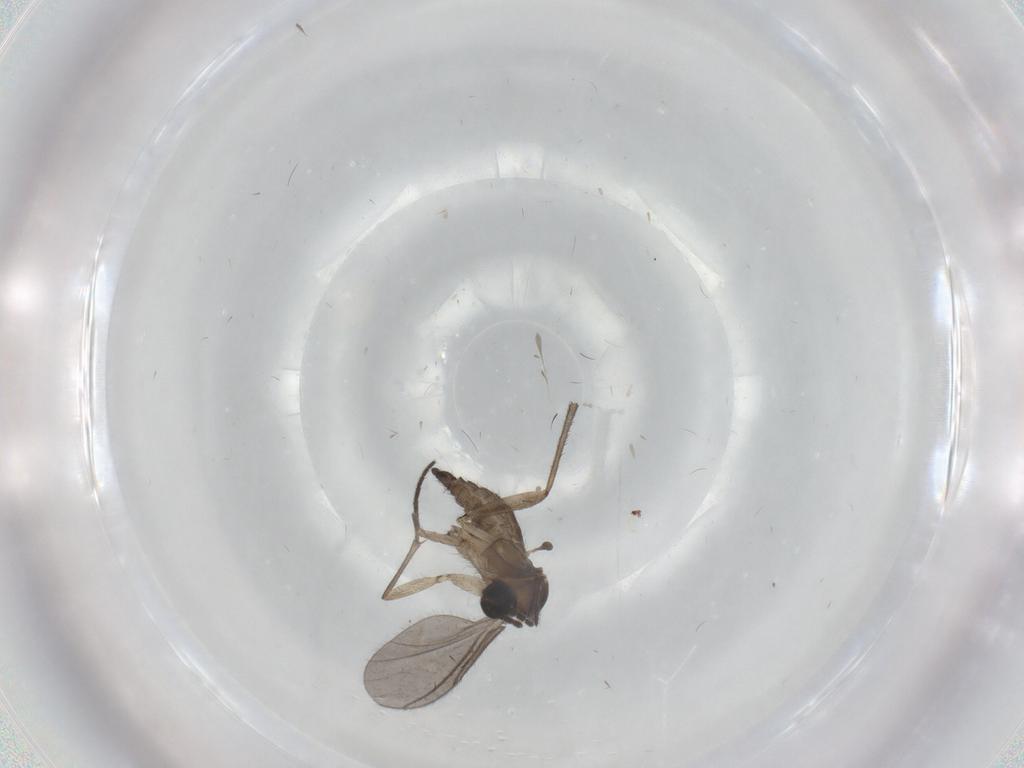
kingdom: Animalia
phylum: Arthropoda
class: Insecta
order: Diptera
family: Sciaridae
